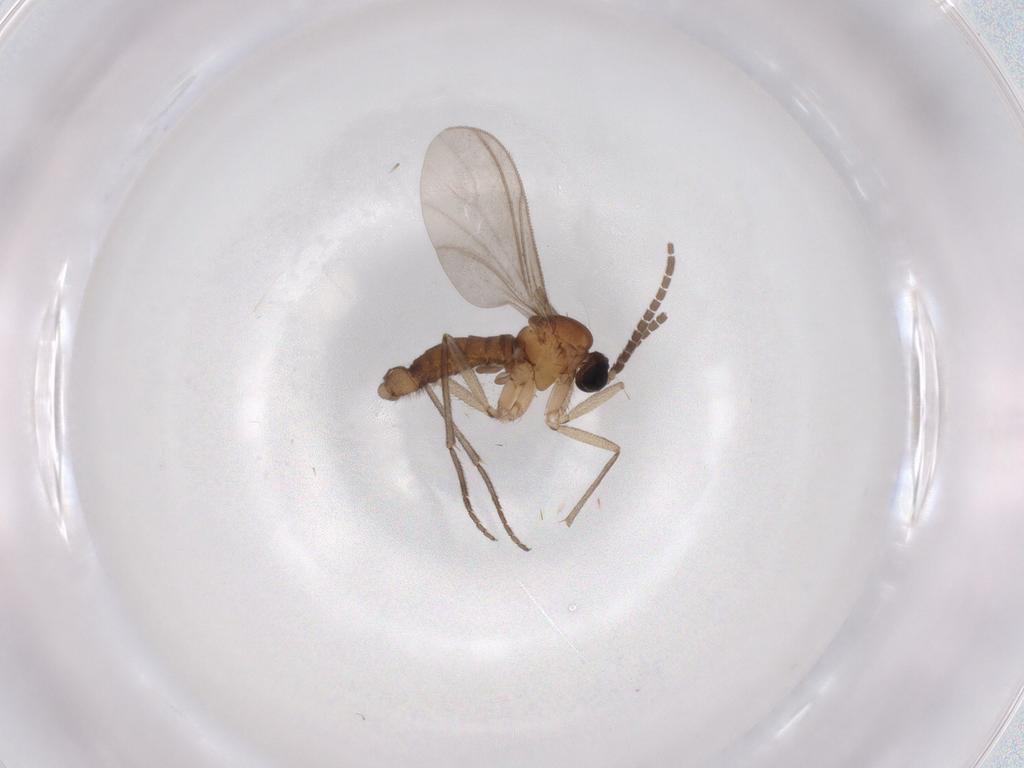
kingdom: Animalia
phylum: Arthropoda
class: Insecta
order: Diptera
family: Sciaridae
